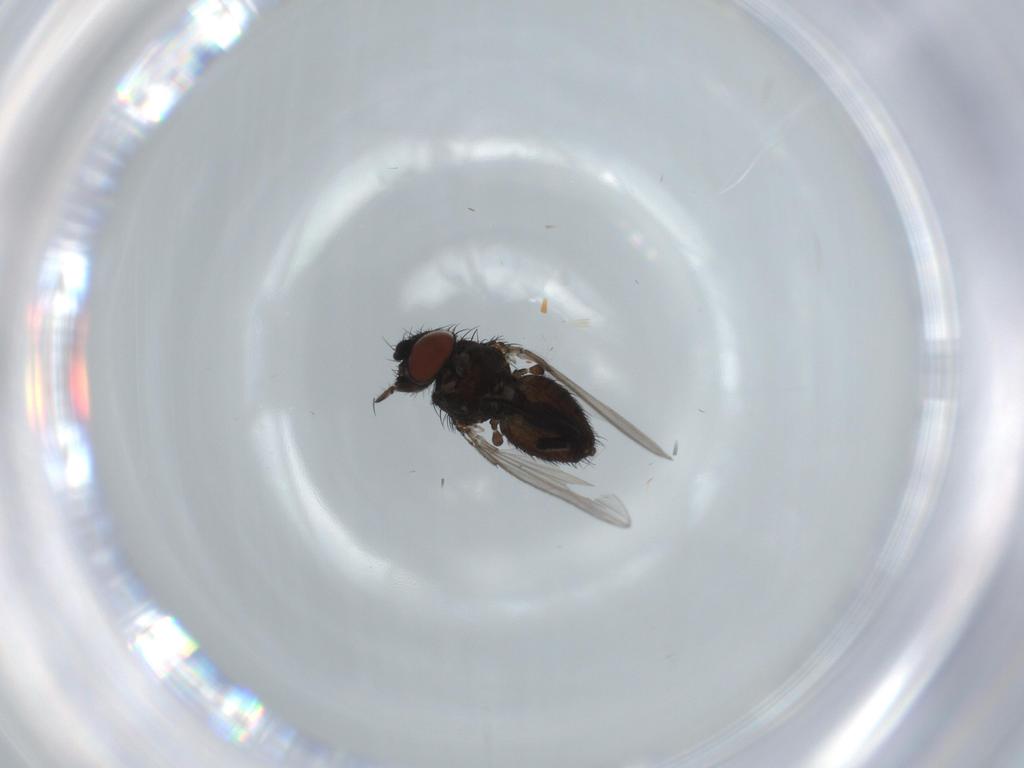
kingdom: Animalia
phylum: Arthropoda
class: Insecta
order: Diptera
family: Milichiidae
